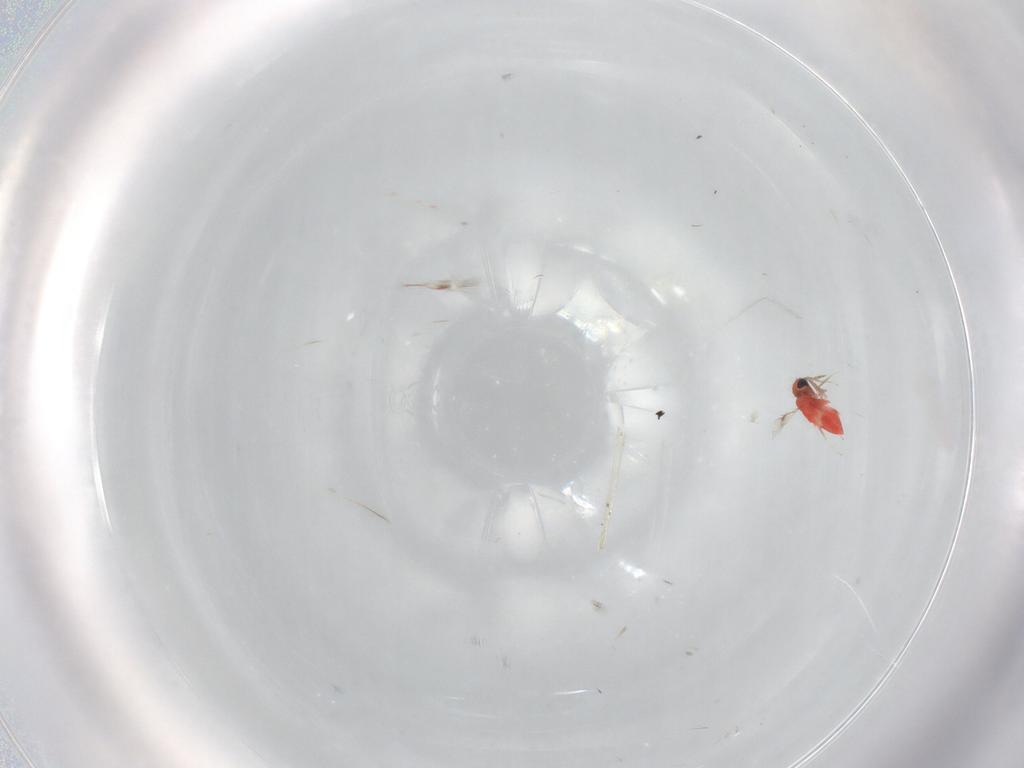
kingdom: Animalia
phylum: Arthropoda
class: Insecta
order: Hymenoptera
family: Trichogrammatidae
